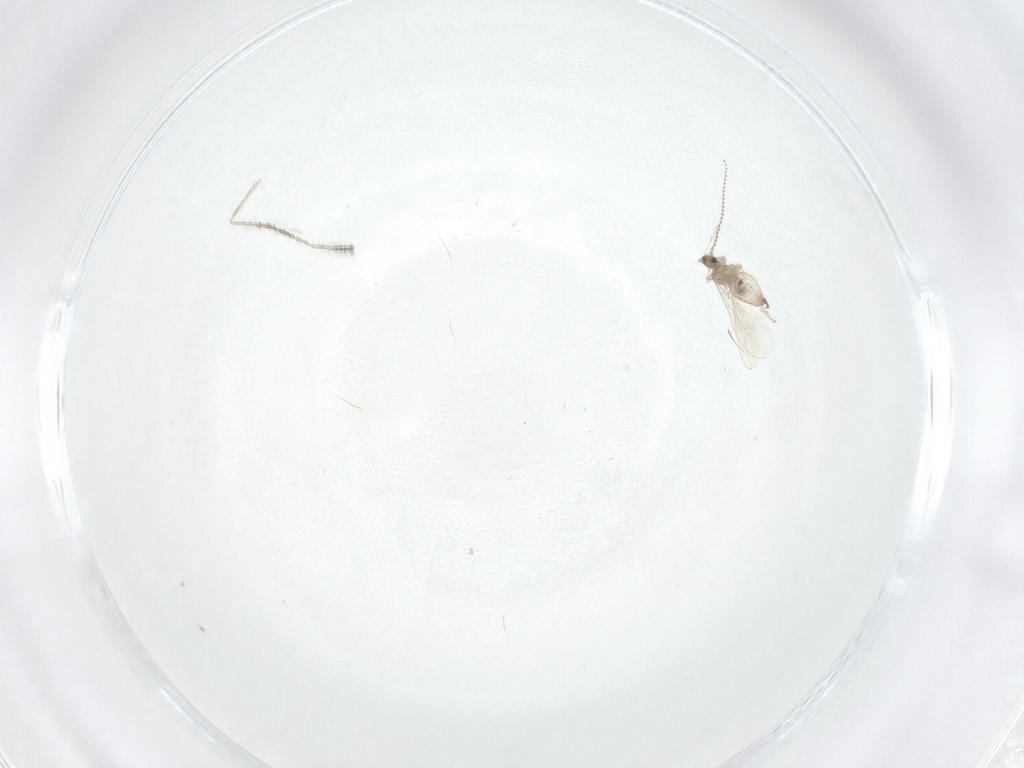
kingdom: Animalia
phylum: Arthropoda
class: Insecta
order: Diptera
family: Cecidomyiidae
